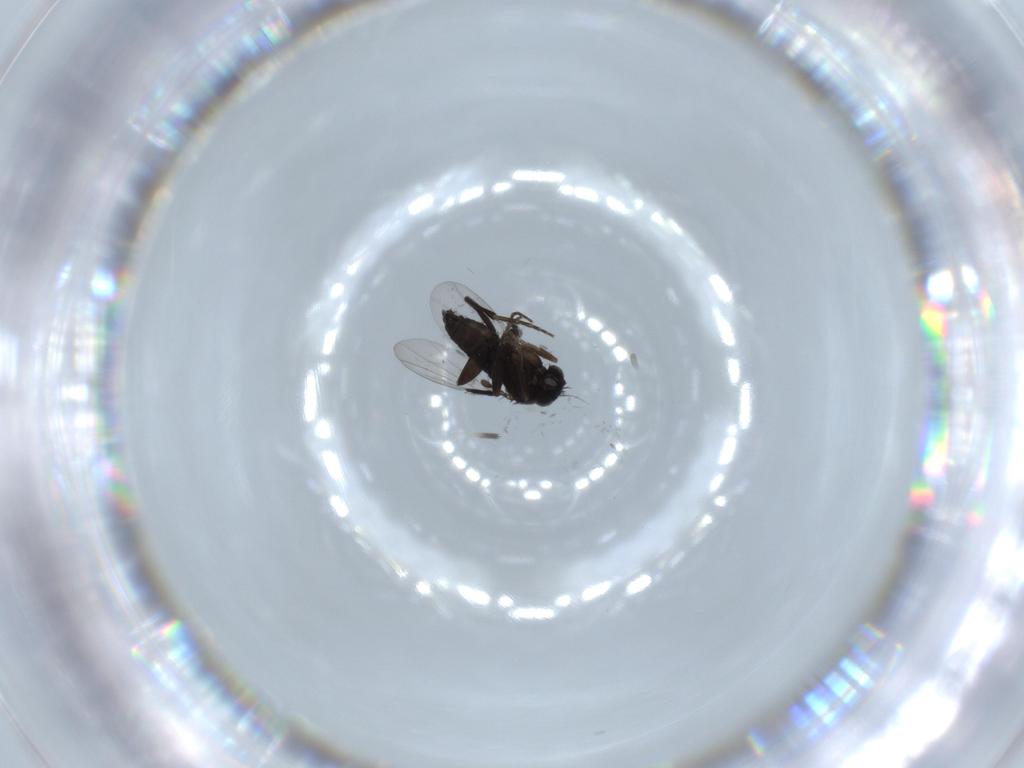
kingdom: Animalia
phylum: Arthropoda
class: Insecta
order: Diptera
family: Phoridae
